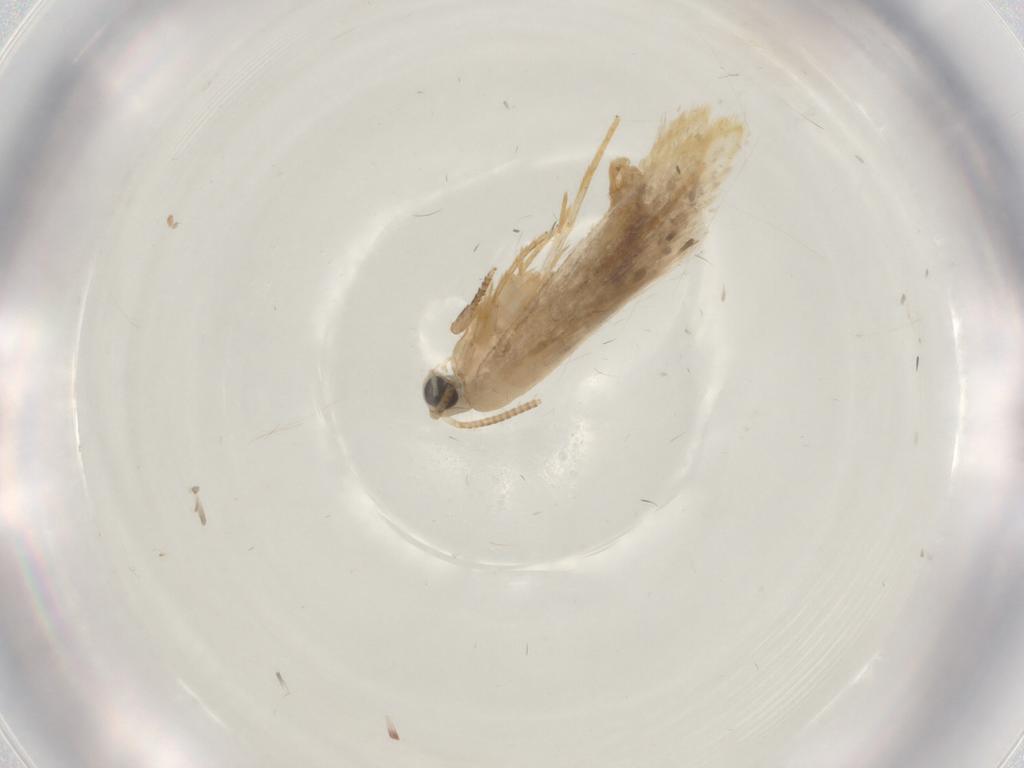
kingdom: Animalia
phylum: Arthropoda
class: Insecta
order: Lepidoptera
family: Tineidae
